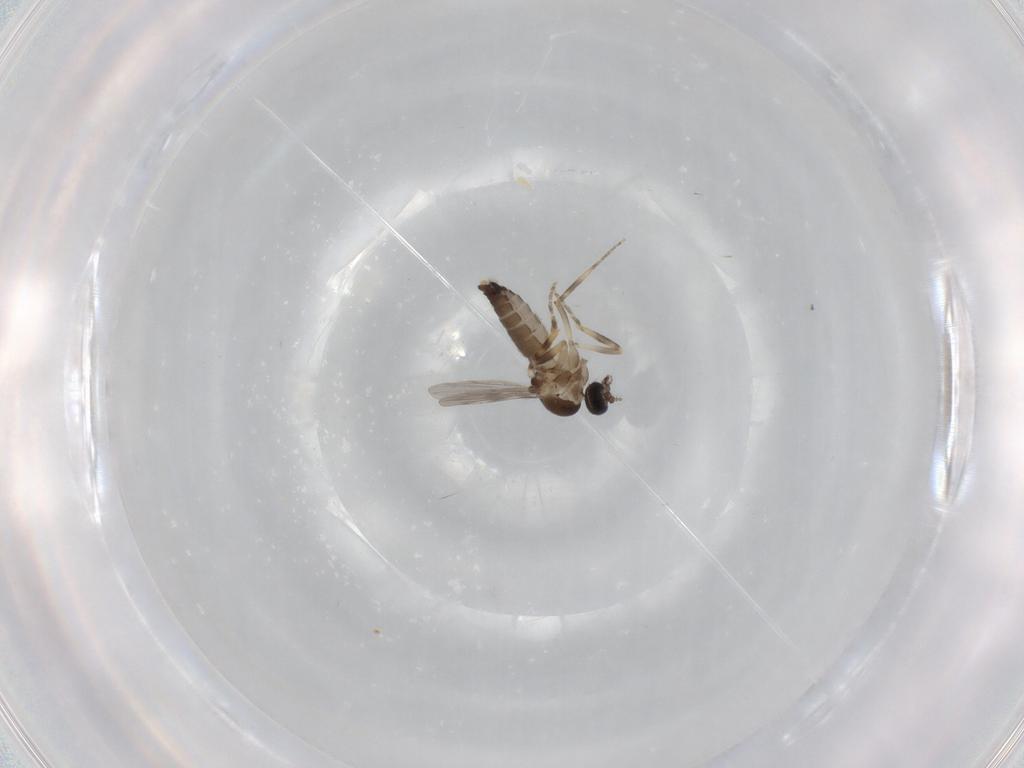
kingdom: Animalia
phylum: Arthropoda
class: Insecta
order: Diptera
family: Ceratopogonidae
